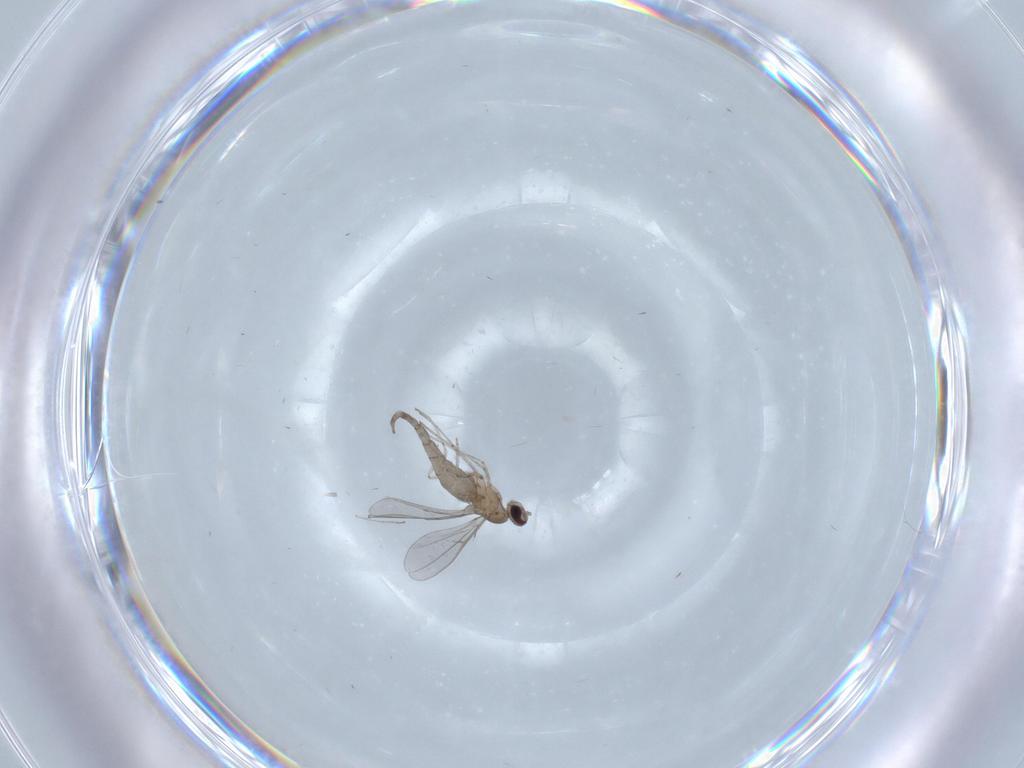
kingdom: Animalia
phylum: Arthropoda
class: Insecta
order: Diptera
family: Cecidomyiidae
